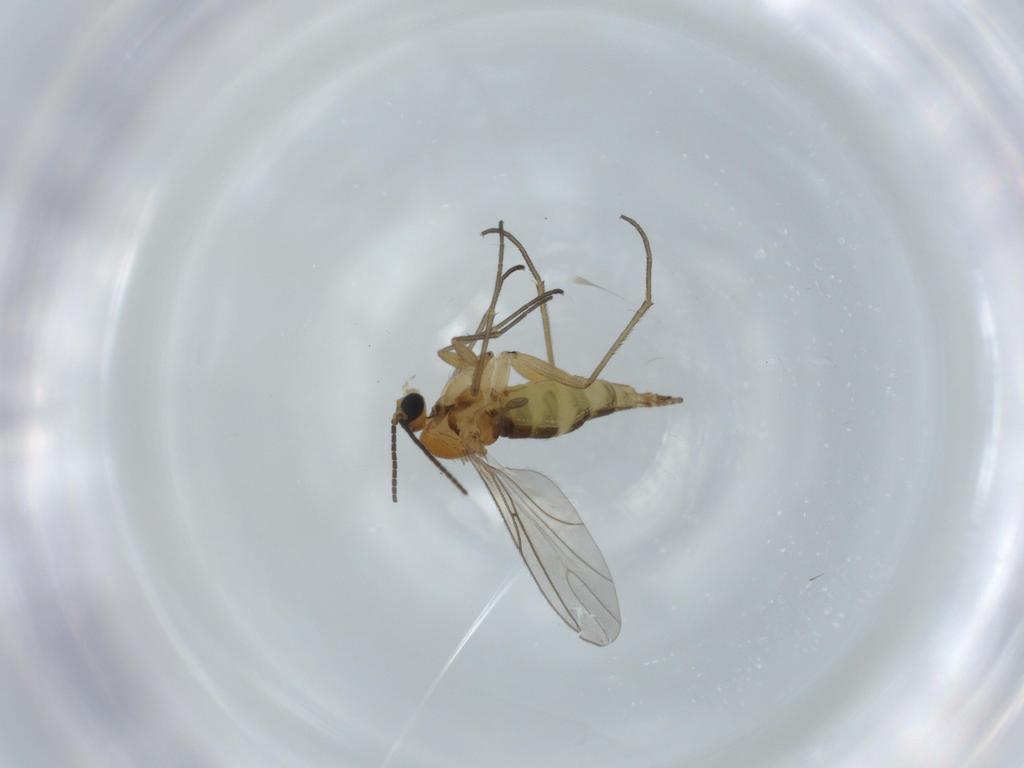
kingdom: Animalia
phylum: Arthropoda
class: Insecta
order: Diptera
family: Sciaridae
